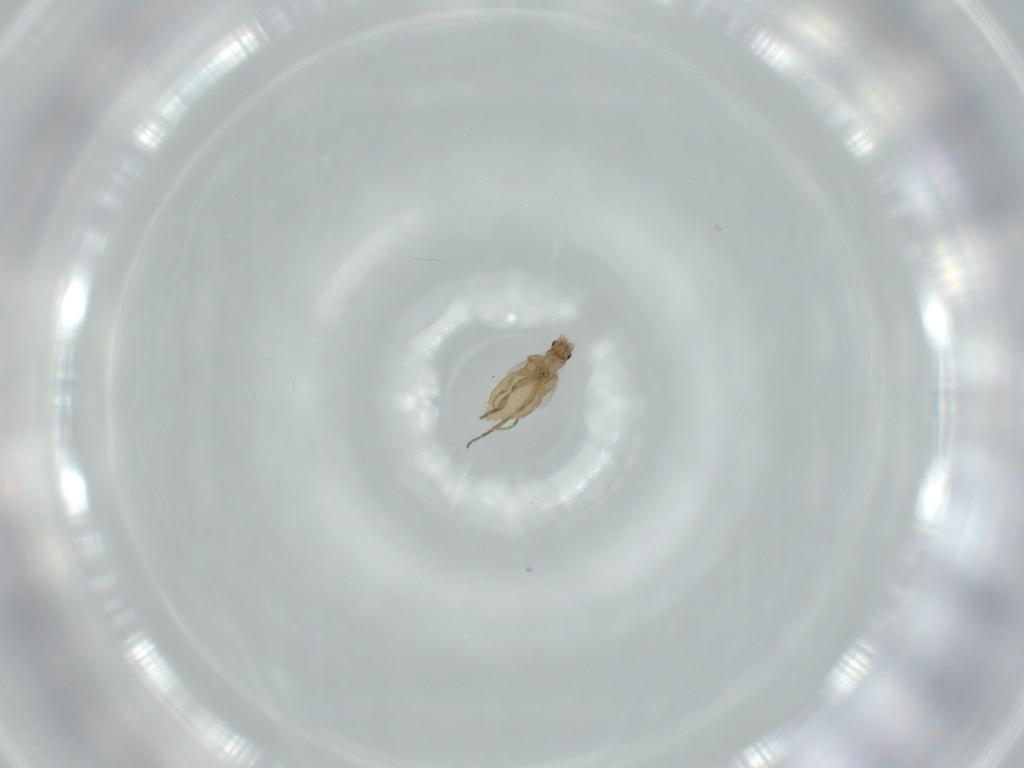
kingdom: Animalia
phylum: Arthropoda
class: Insecta
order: Diptera
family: Phoridae
